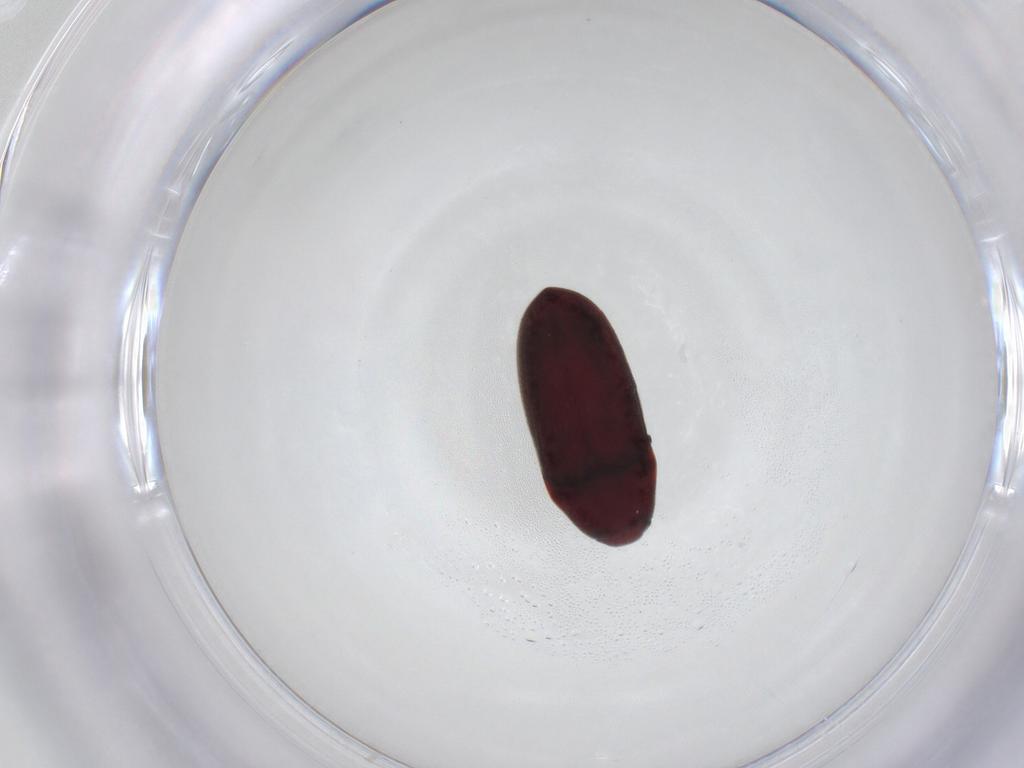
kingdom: Animalia
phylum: Arthropoda
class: Insecta
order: Coleoptera
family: Throscidae
